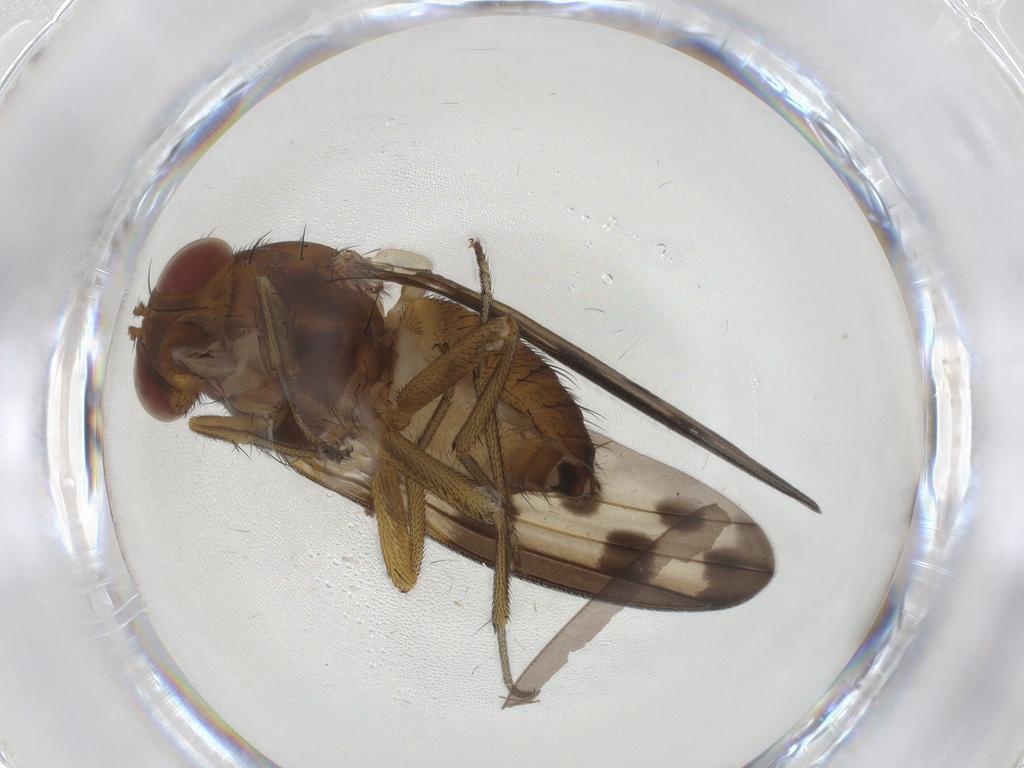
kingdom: Animalia
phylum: Arthropoda
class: Insecta
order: Diptera
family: Chironomidae
